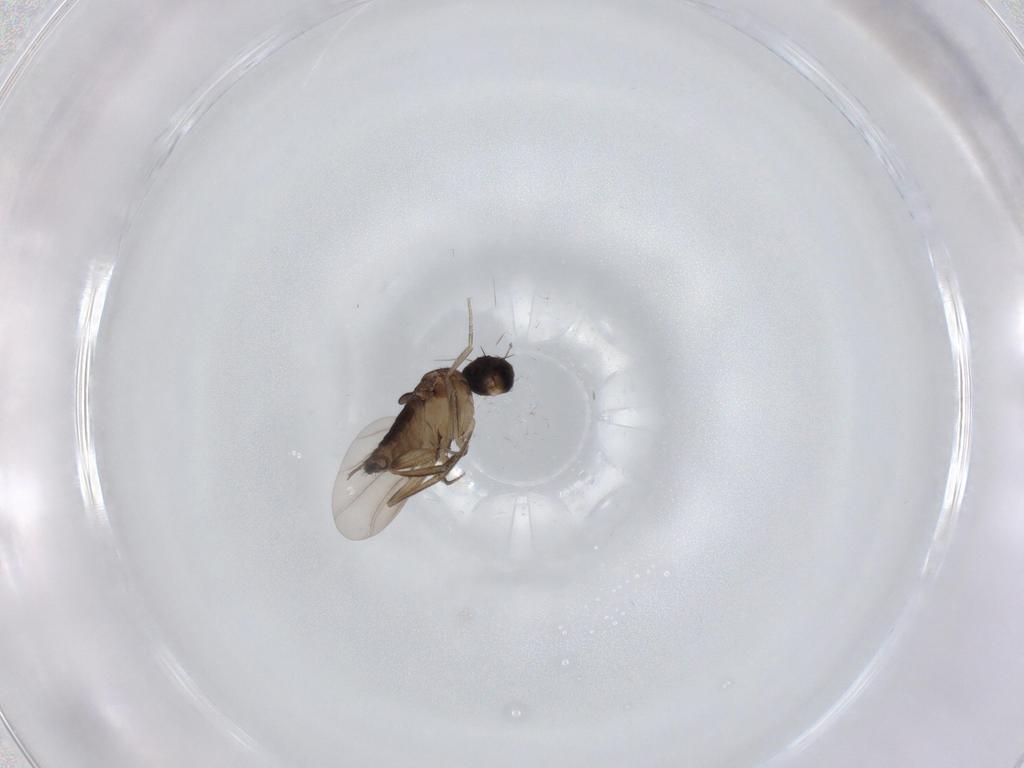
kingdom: Animalia
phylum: Arthropoda
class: Insecta
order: Diptera
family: Phoridae
